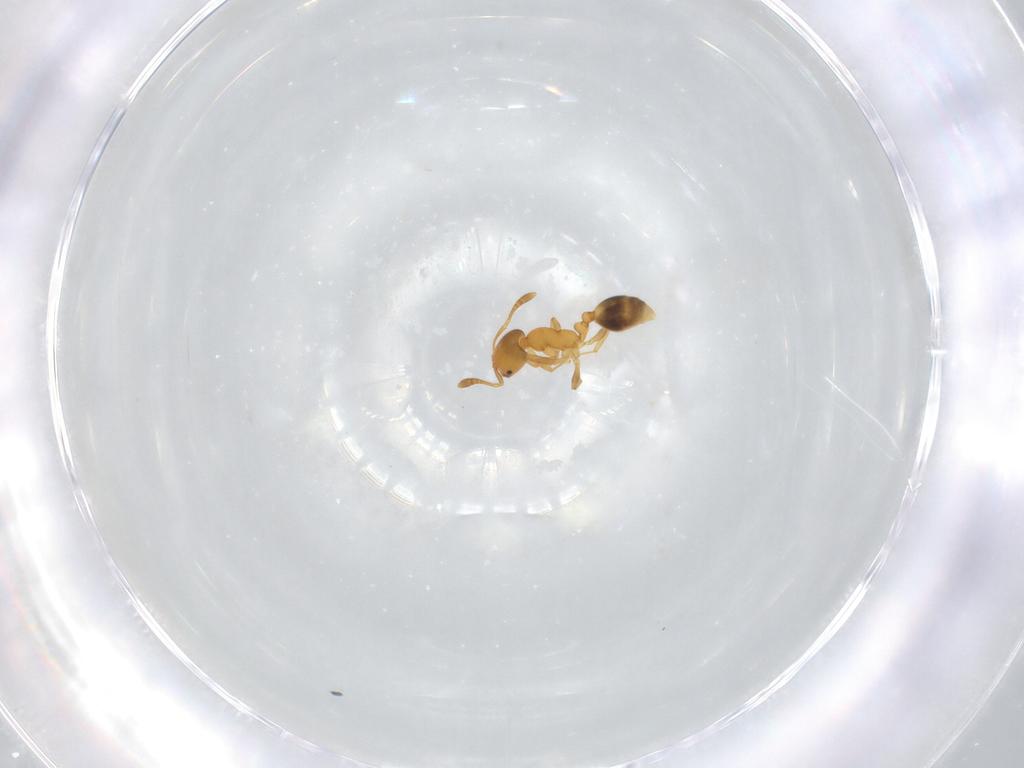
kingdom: Animalia
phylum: Arthropoda
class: Insecta
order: Hymenoptera
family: Formicidae
